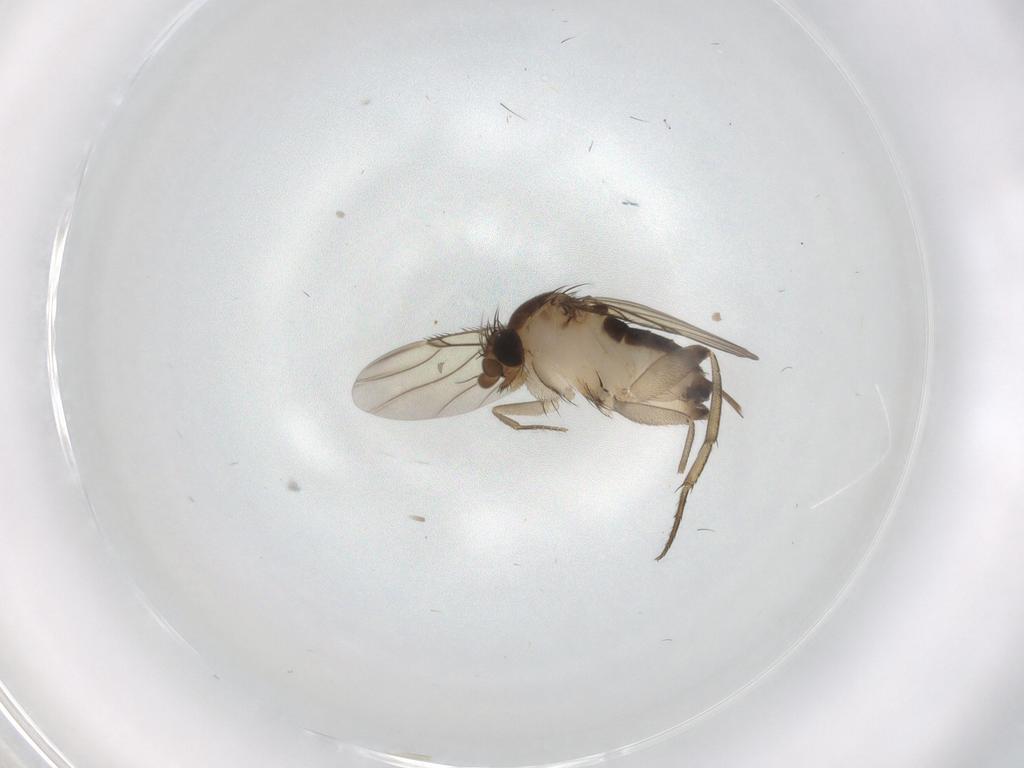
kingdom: Animalia
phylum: Arthropoda
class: Insecta
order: Diptera
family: Phoridae
